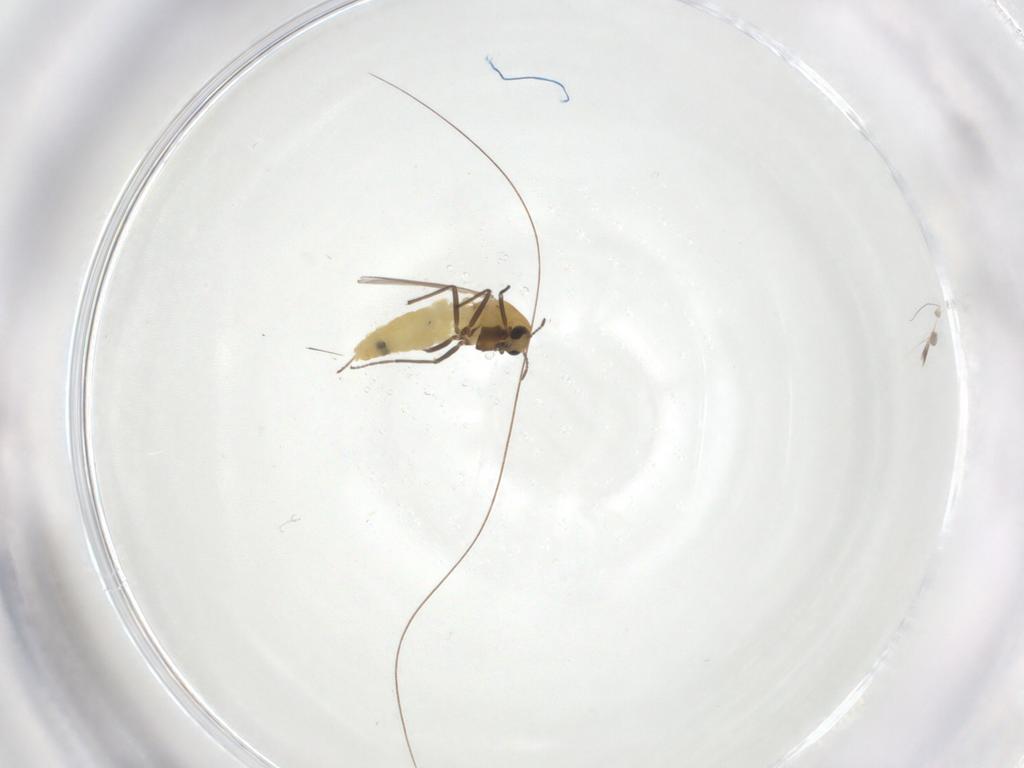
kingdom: Animalia
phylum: Arthropoda
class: Insecta
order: Diptera
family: Chironomidae
